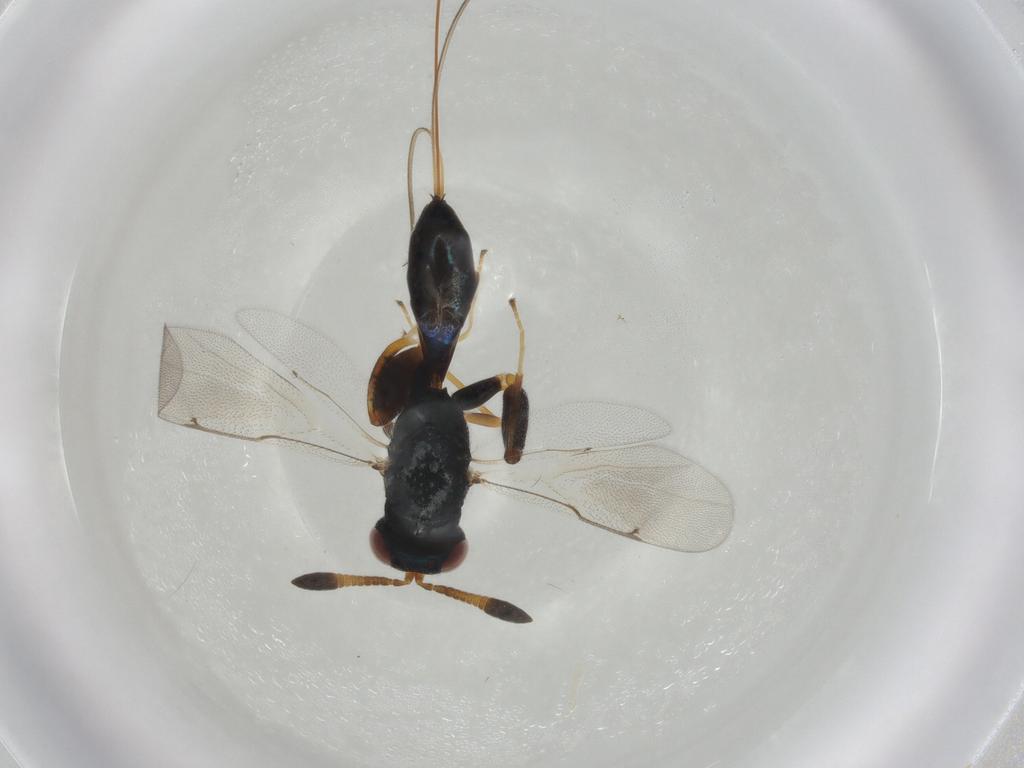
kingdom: Animalia
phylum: Arthropoda
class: Insecta
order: Hymenoptera
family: Torymidae
